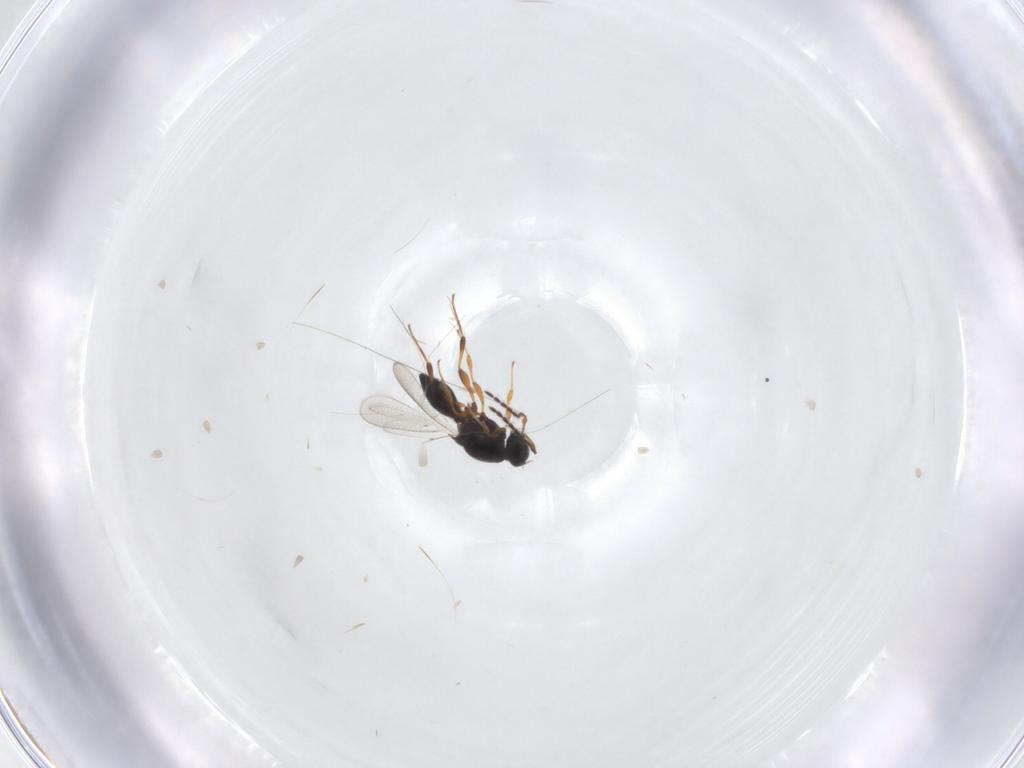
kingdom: Animalia
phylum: Arthropoda
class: Insecta
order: Hymenoptera
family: Platygastridae
